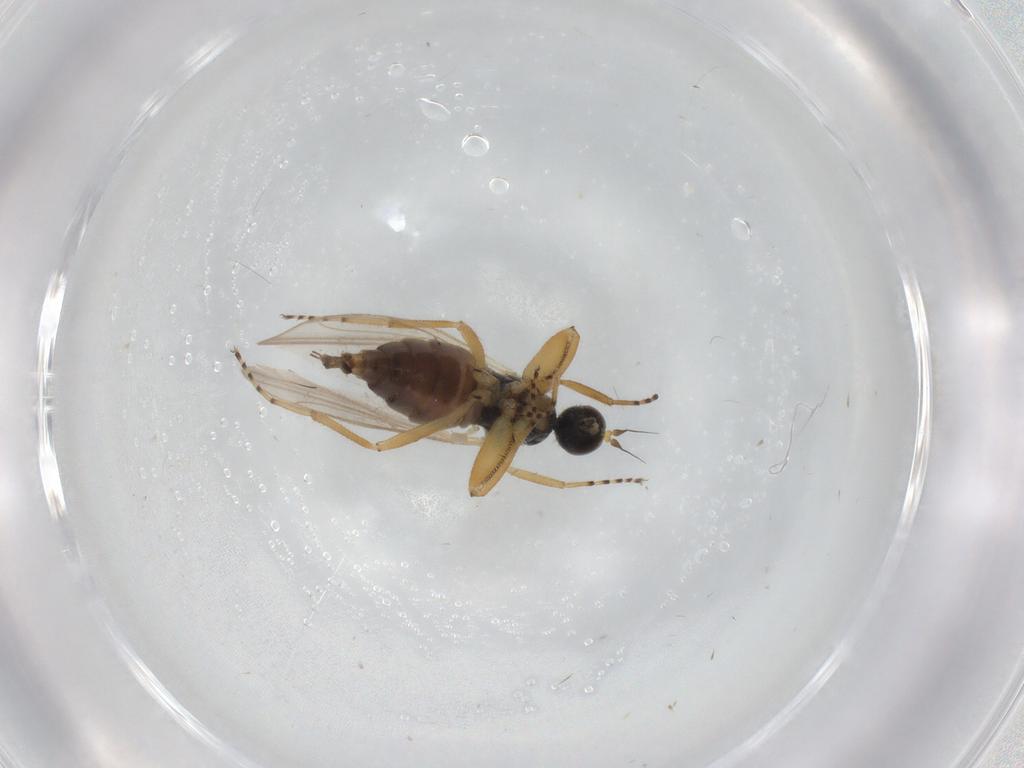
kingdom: Animalia
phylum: Arthropoda
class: Insecta
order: Diptera
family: Hybotidae
